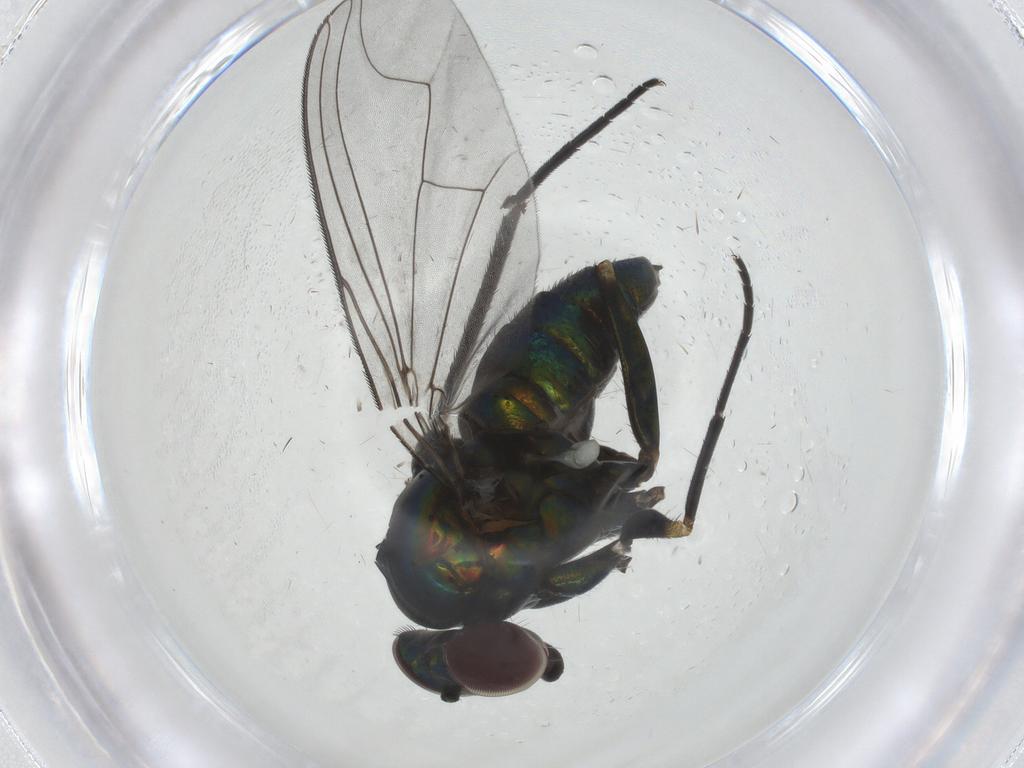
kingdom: Animalia
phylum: Arthropoda
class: Insecta
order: Diptera
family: Dolichopodidae
